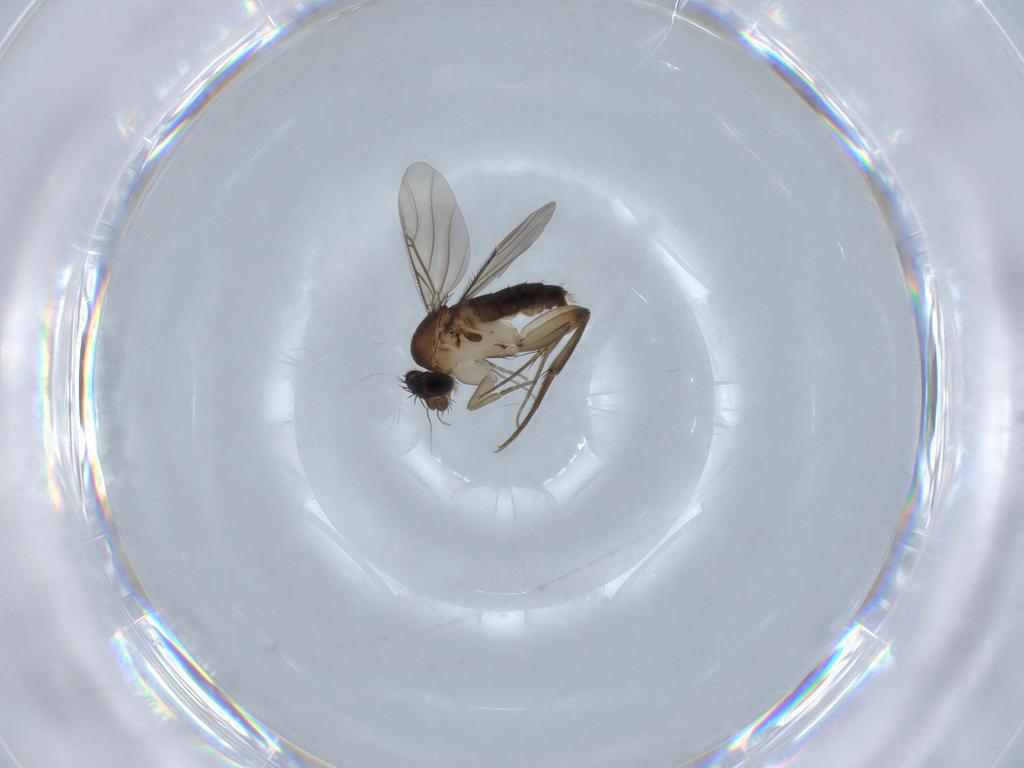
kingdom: Animalia
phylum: Arthropoda
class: Insecta
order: Diptera
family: Phoridae
